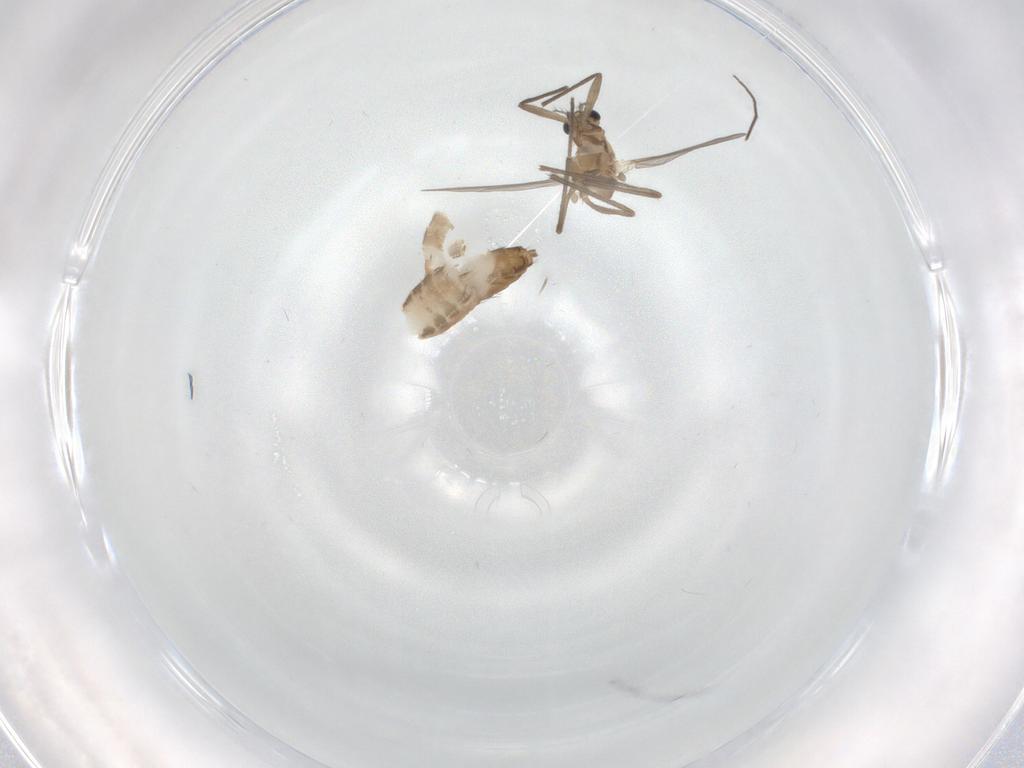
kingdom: Animalia
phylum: Arthropoda
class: Insecta
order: Diptera
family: Chironomidae
